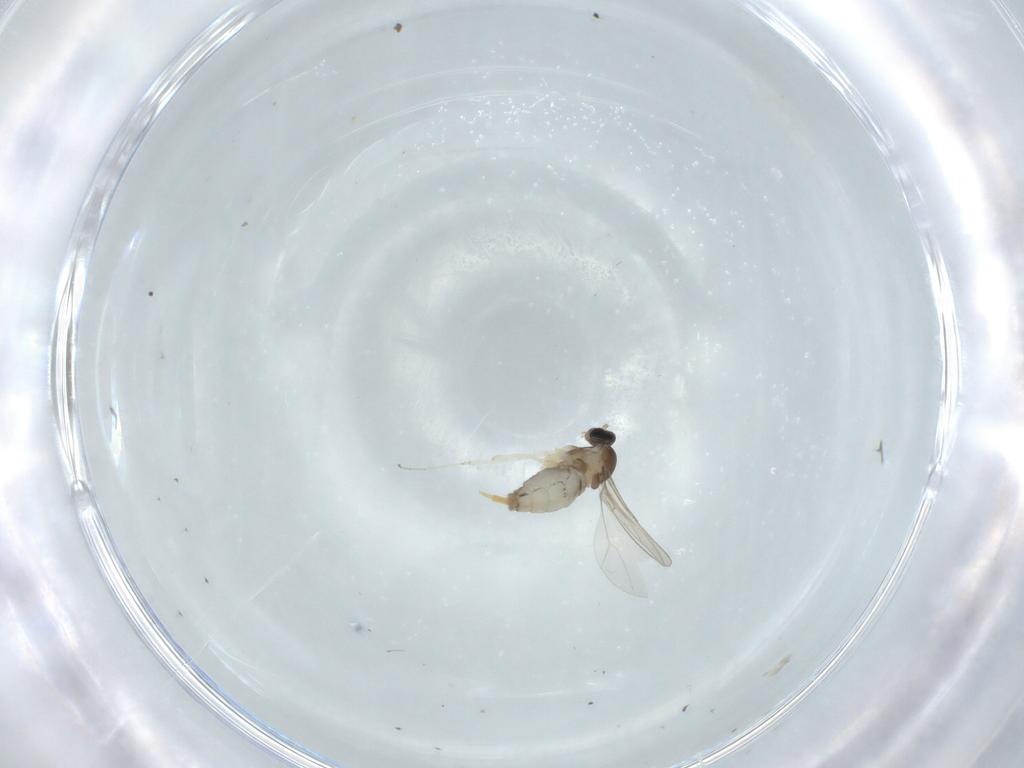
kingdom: Animalia
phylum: Arthropoda
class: Insecta
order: Diptera
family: Cecidomyiidae
